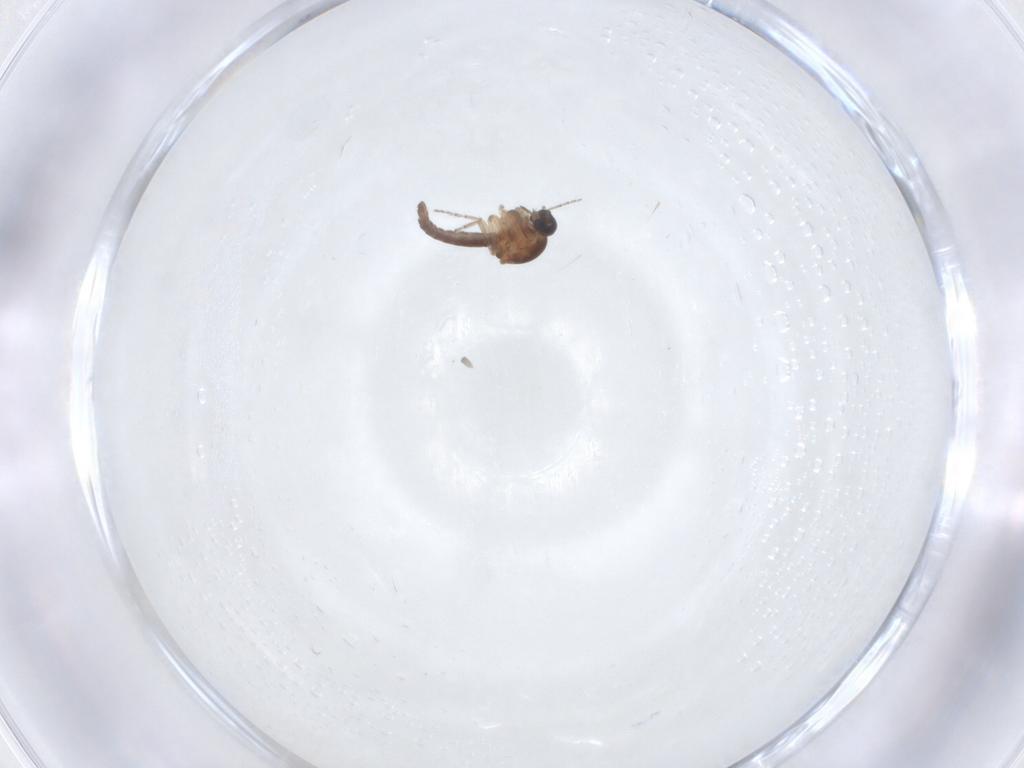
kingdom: Animalia
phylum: Arthropoda
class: Insecta
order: Diptera
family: Ceratopogonidae
